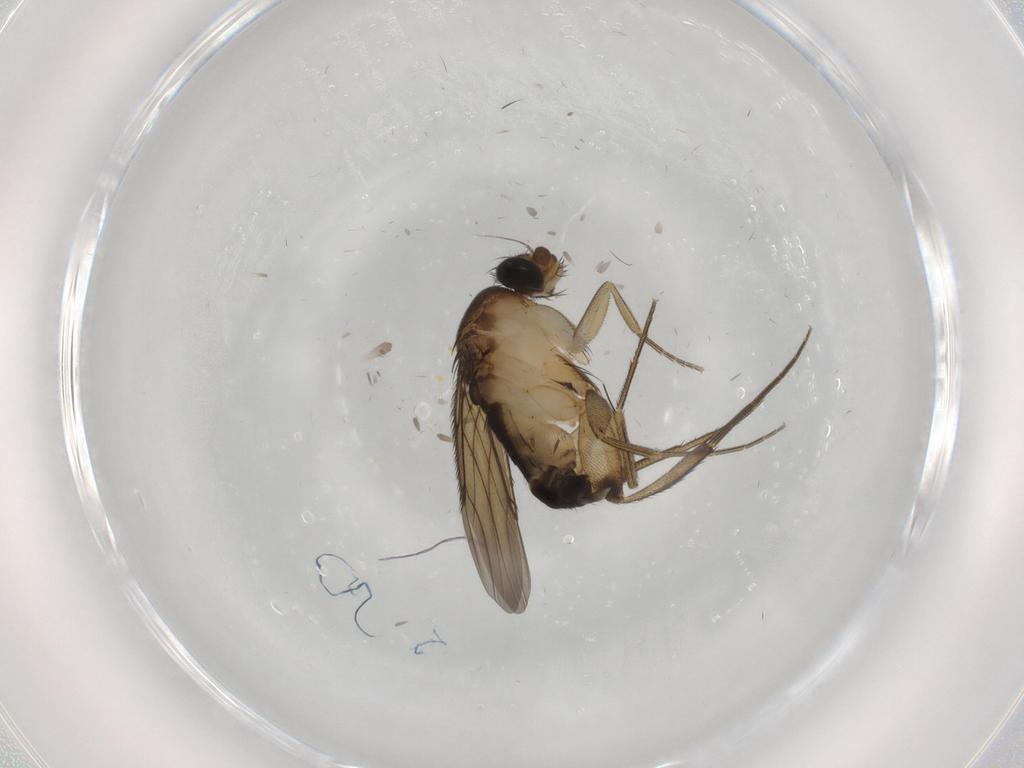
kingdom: Animalia
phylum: Arthropoda
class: Insecta
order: Diptera
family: Phoridae
